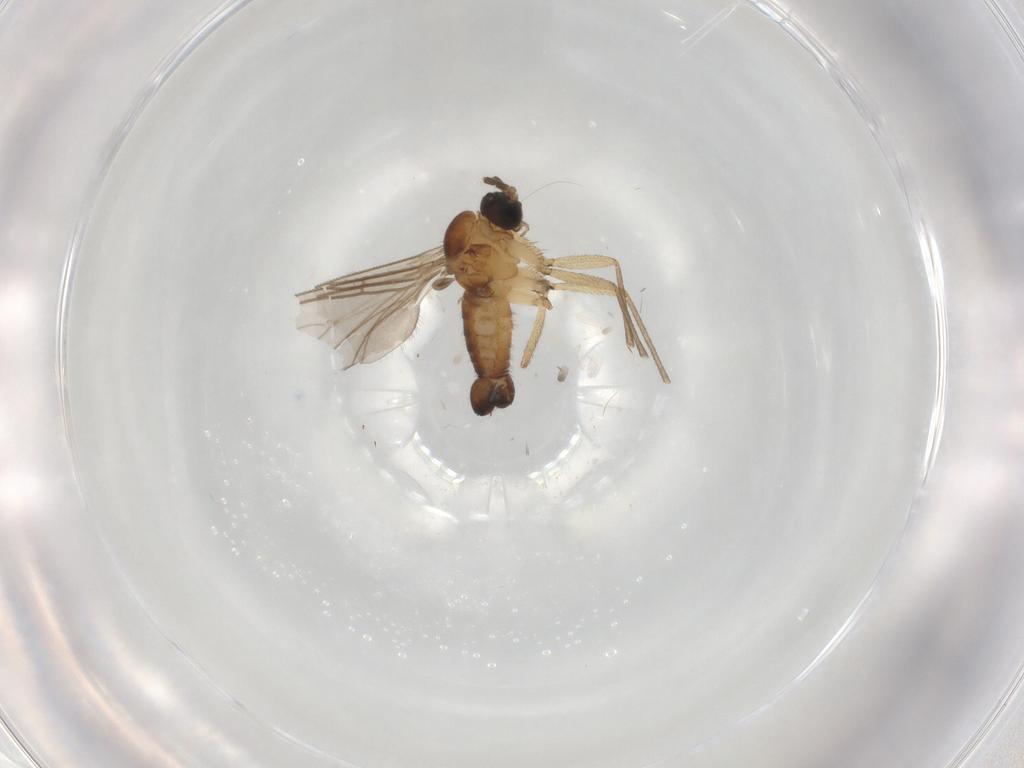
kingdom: Animalia
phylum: Arthropoda
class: Insecta
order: Diptera
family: Sciaridae
